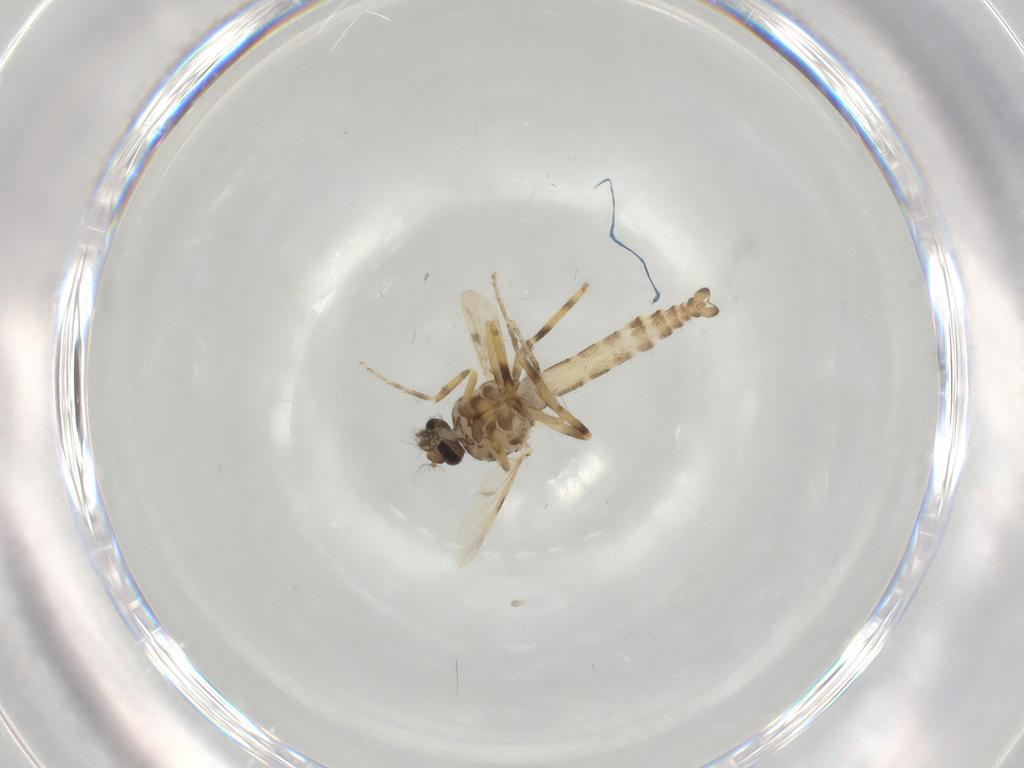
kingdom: Animalia
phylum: Arthropoda
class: Insecta
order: Diptera
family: Ceratopogonidae
